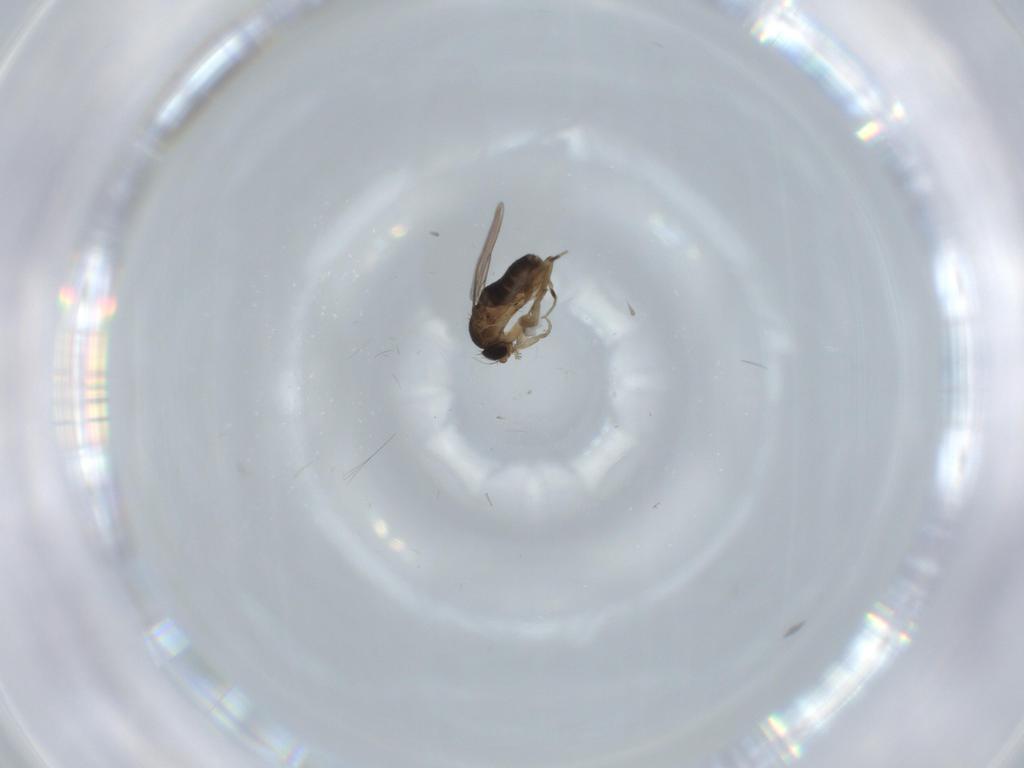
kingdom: Animalia
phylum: Arthropoda
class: Insecta
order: Diptera
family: Phoridae
